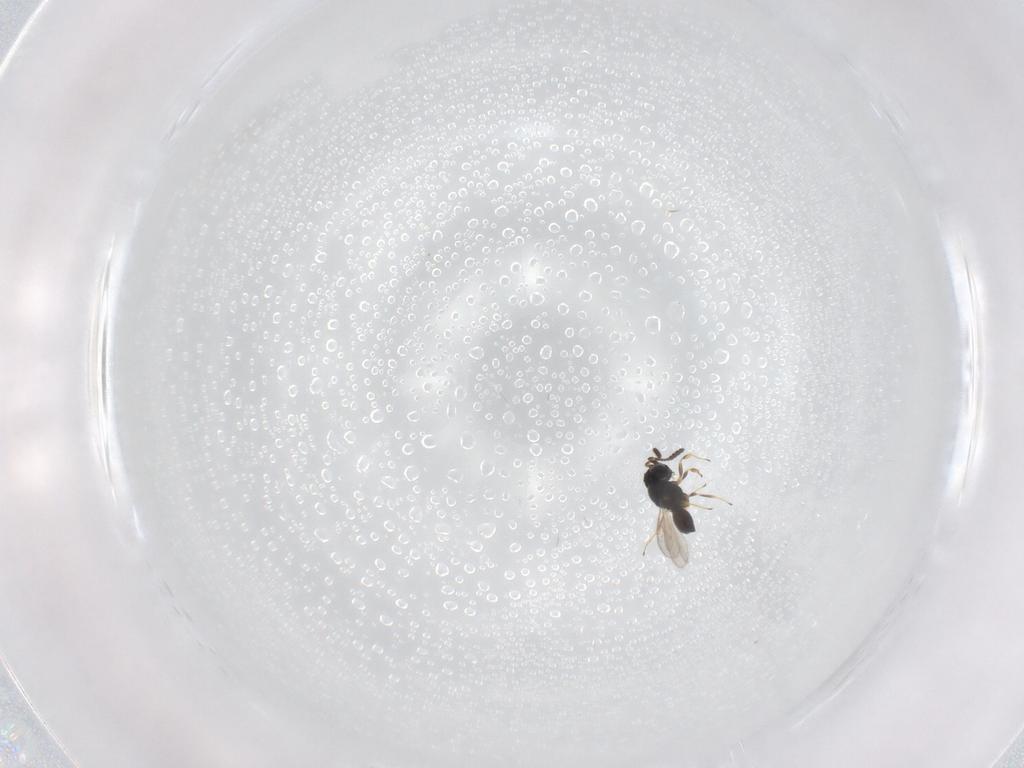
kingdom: Animalia
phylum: Arthropoda
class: Insecta
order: Hymenoptera
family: Scelionidae
